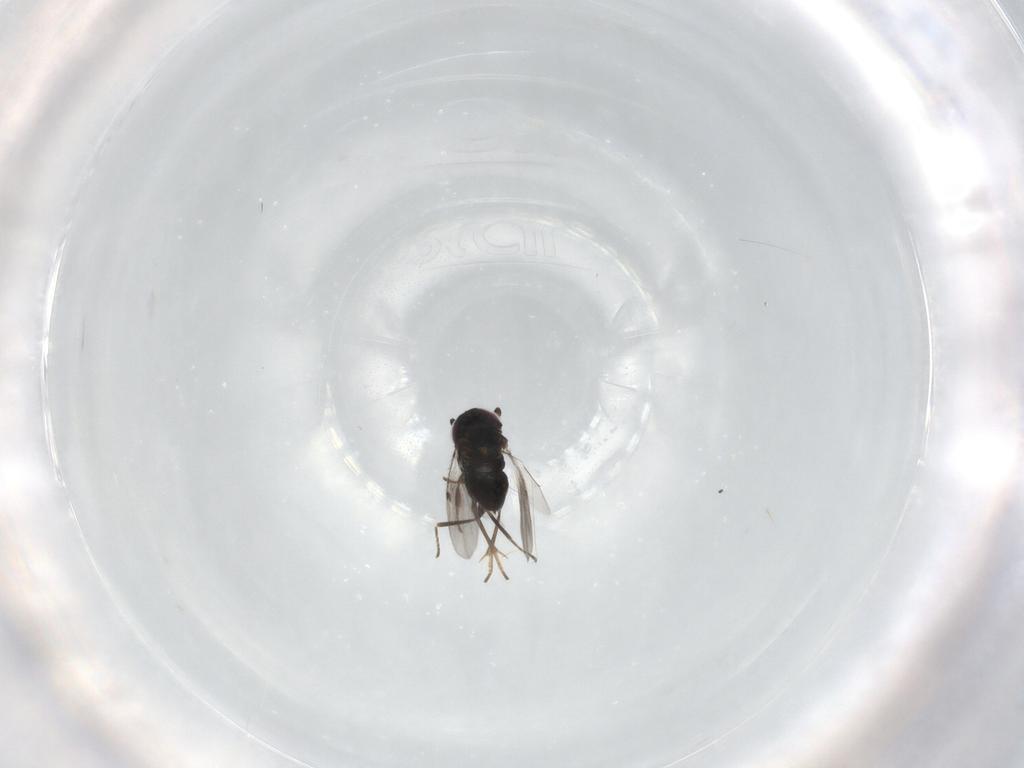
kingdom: Animalia
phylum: Arthropoda
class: Insecta
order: Hymenoptera
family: Encyrtidae
